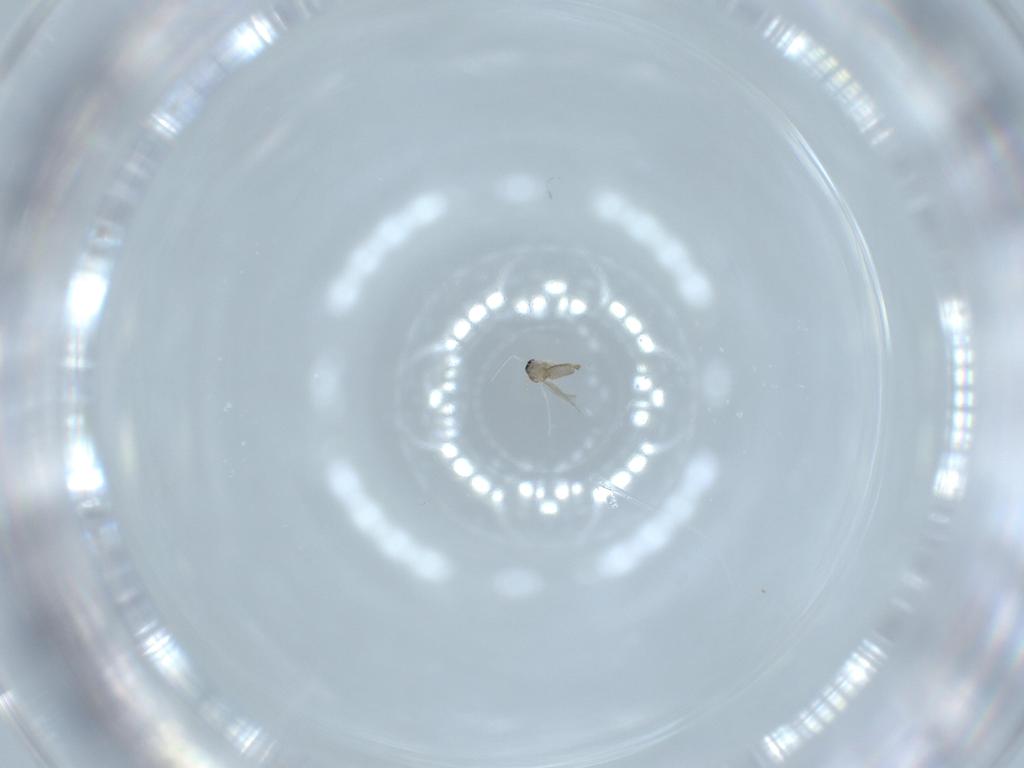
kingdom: Animalia
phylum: Arthropoda
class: Insecta
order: Diptera
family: Cecidomyiidae
